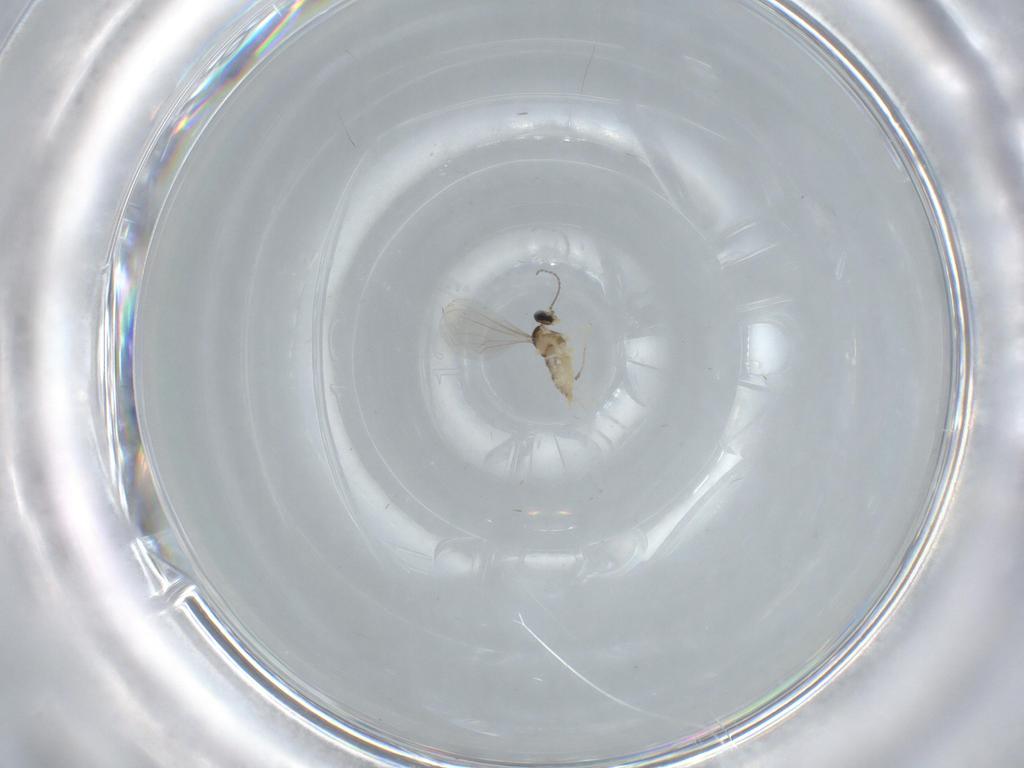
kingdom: Animalia
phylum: Arthropoda
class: Insecta
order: Diptera
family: Cecidomyiidae
